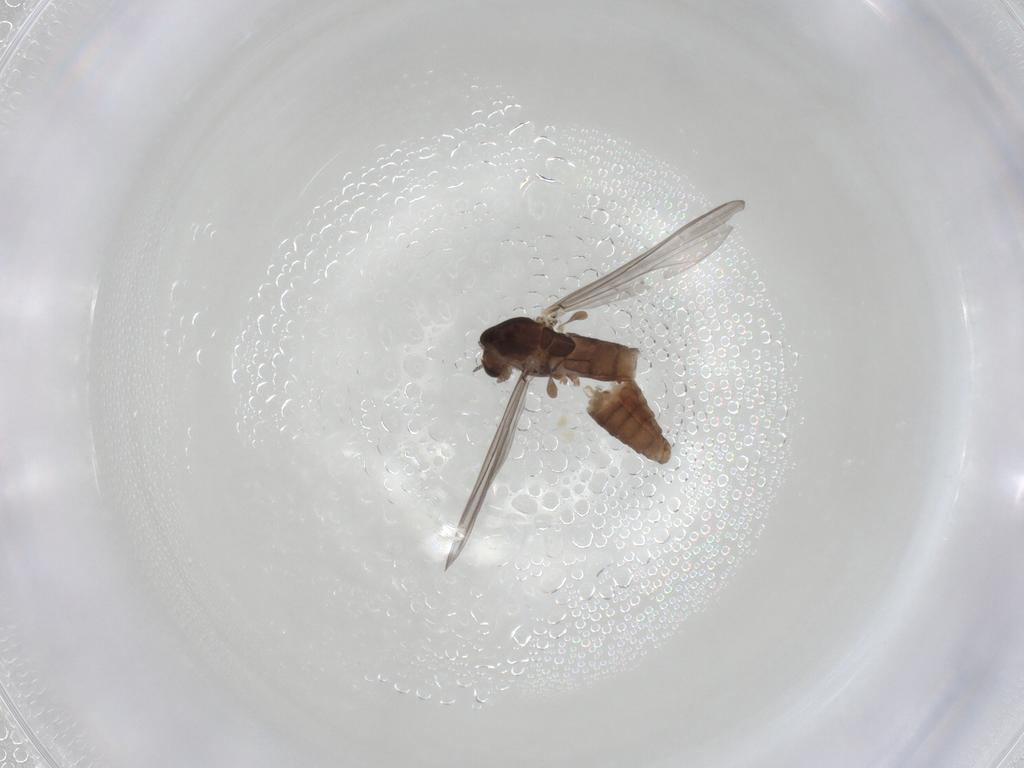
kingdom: Animalia
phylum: Arthropoda
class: Insecta
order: Diptera
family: Chironomidae
